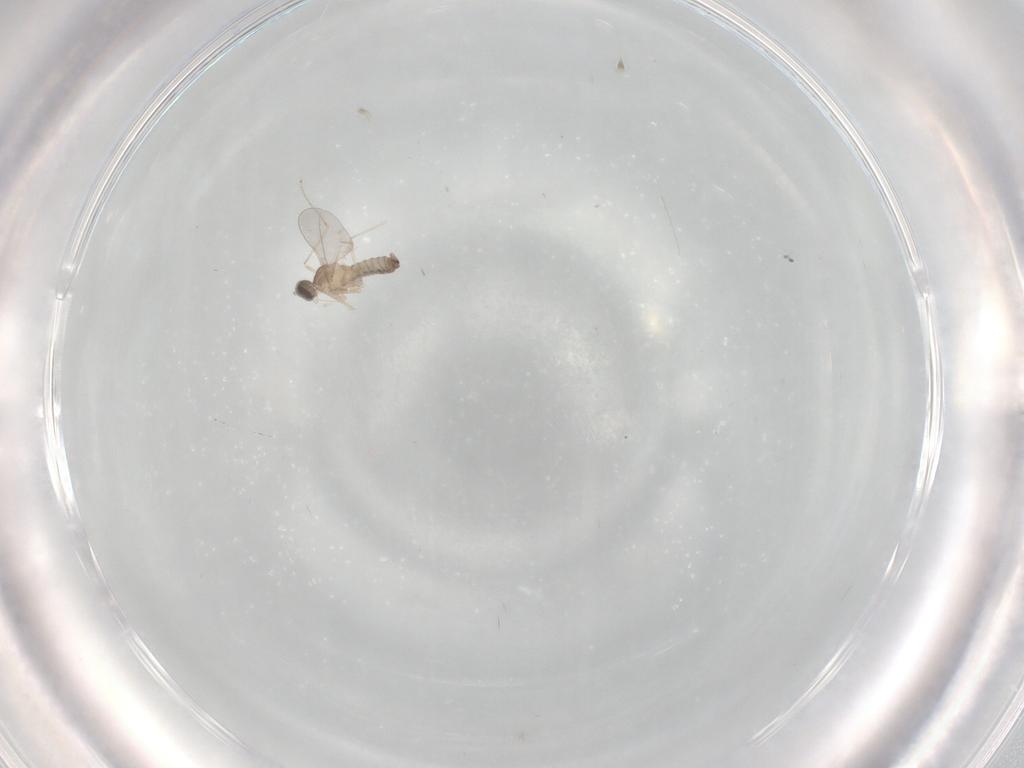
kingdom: Animalia
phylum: Arthropoda
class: Insecta
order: Diptera
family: Cecidomyiidae
